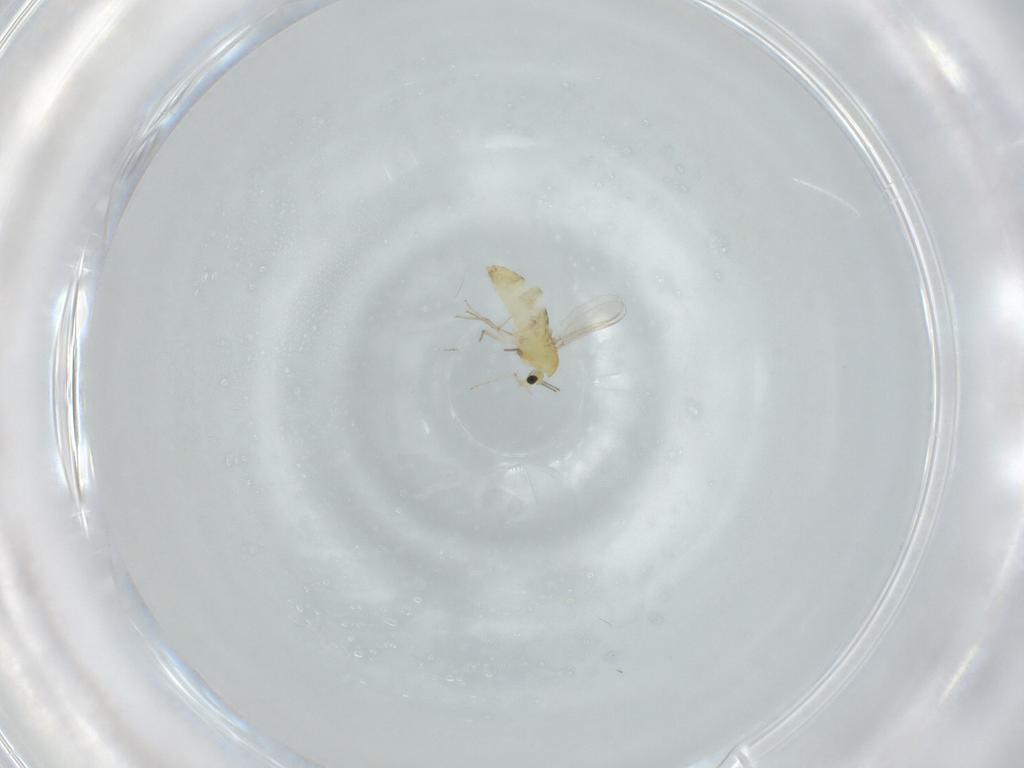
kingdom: Animalia
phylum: Arthropoda
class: Insecta
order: Diptera
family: Chironomidae
